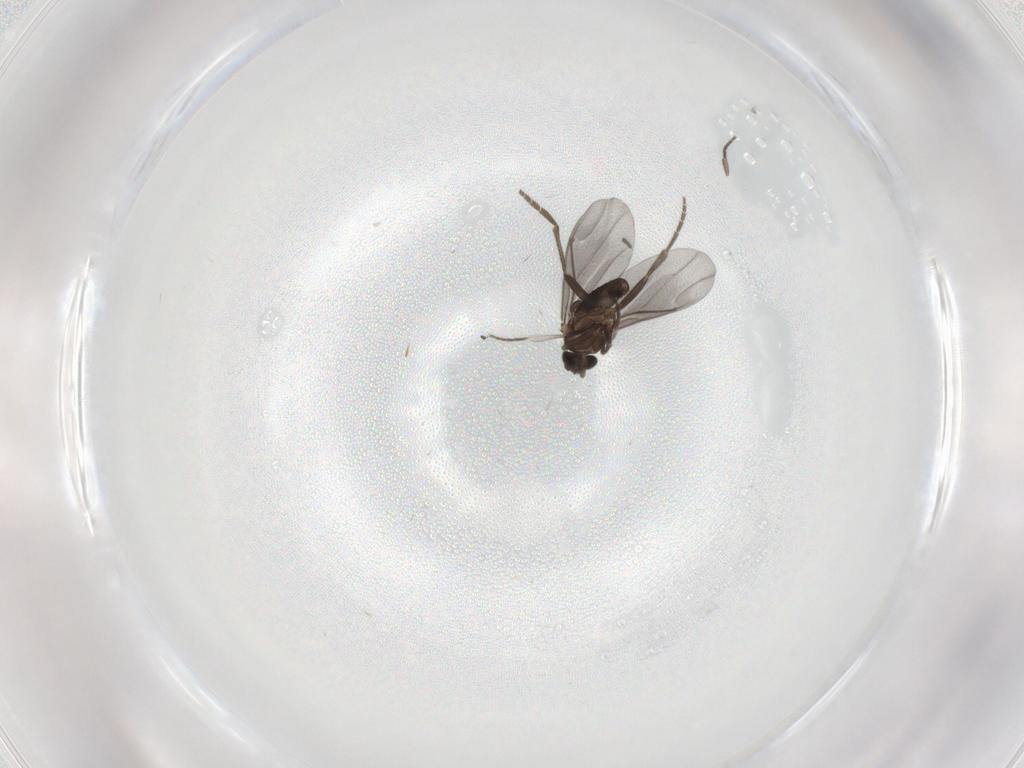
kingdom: Animalia
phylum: Arthropoda
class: Insecta
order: Diptera
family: Phoridae
